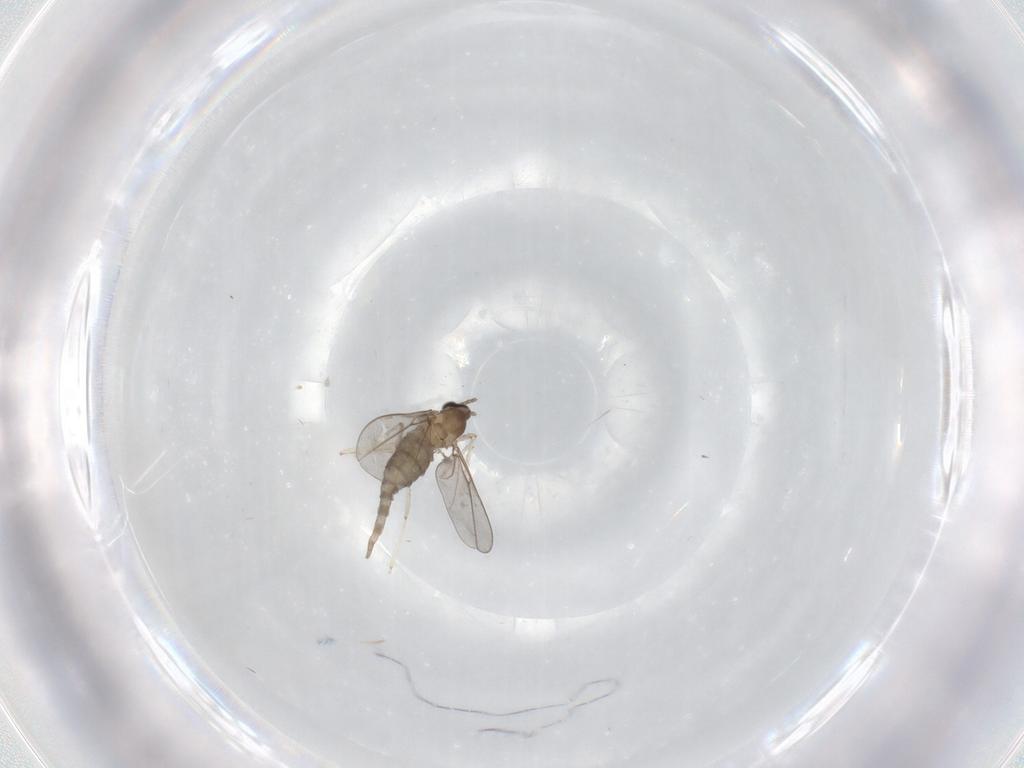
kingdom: Animalia
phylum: Arthropoda
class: Insecta
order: Diptera
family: Cecidomyiidae
